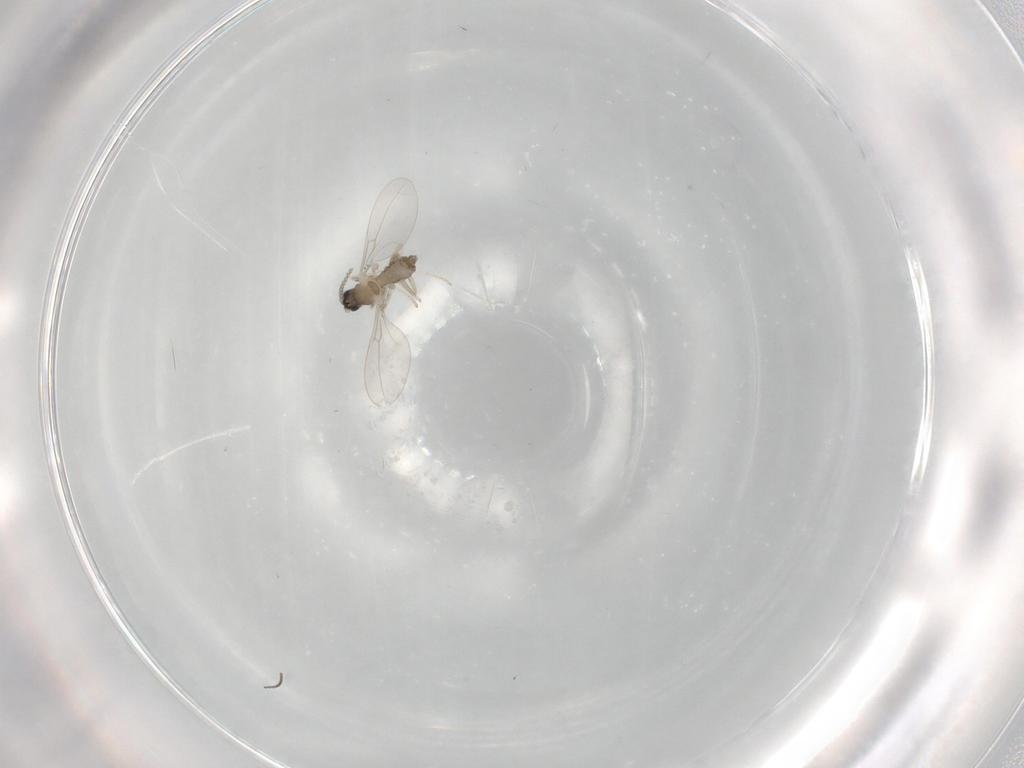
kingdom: Animalia
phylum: Arthropoda
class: Insecta
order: Diptera
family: Cecidomyiidae
